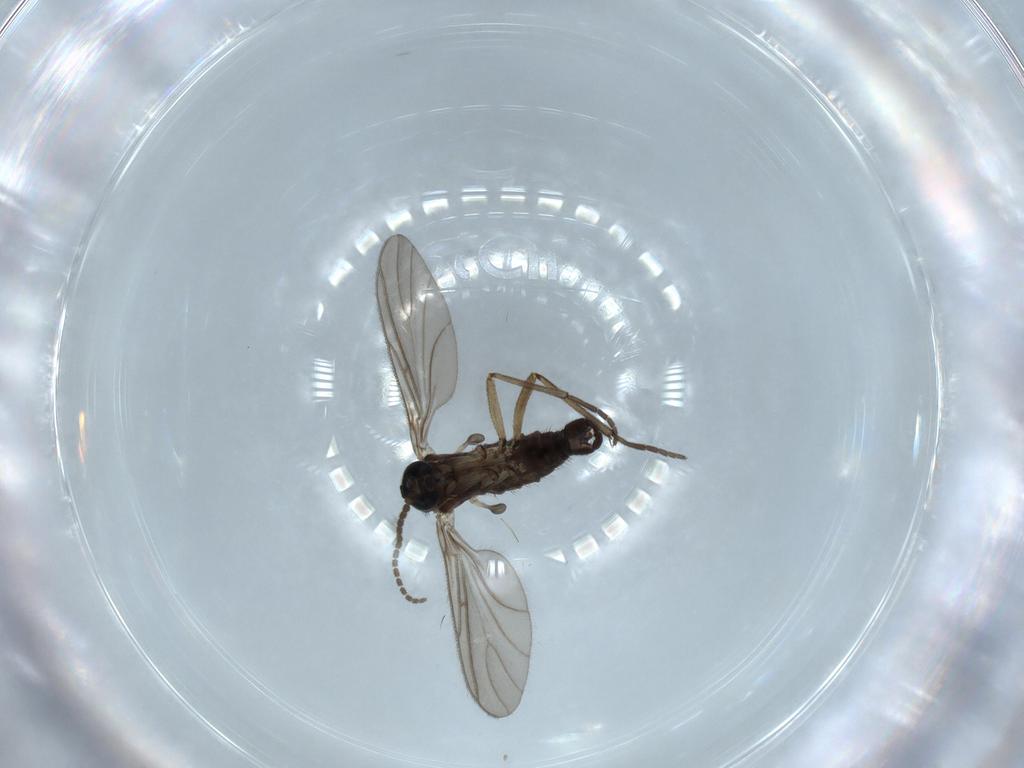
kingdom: Animalia
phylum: Arthropoda
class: Insecta
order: Diptera
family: Sciaridae
